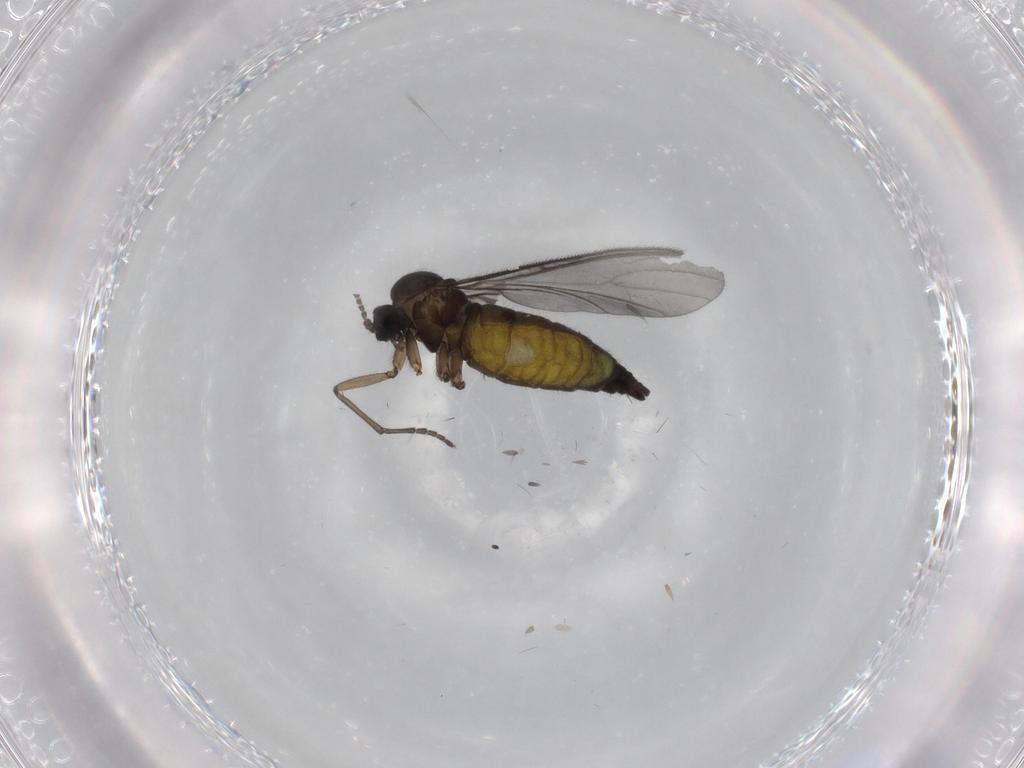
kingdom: Animalia
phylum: Arthropoda
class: Insecta
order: Diptera
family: Sciaridae
